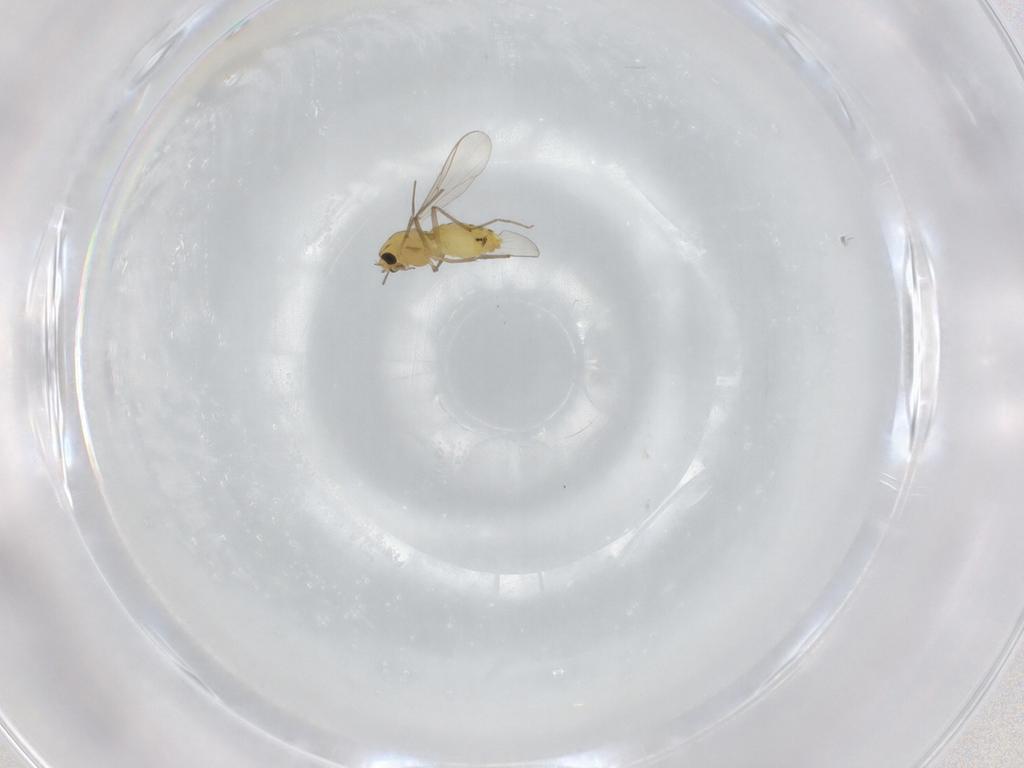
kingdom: Animalia
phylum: Arthropoda
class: Insecta
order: Diptera
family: Chironomidae
